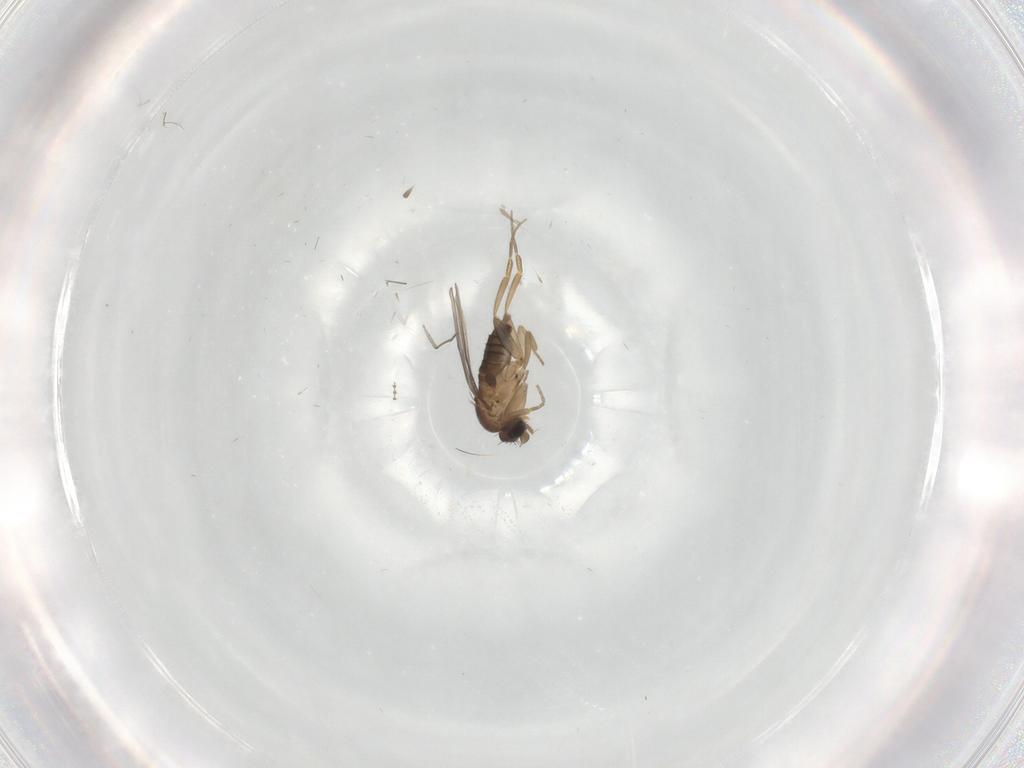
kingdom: Animalia
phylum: Arthropoda
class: Insecta
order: Diptera
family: Chironomidae
